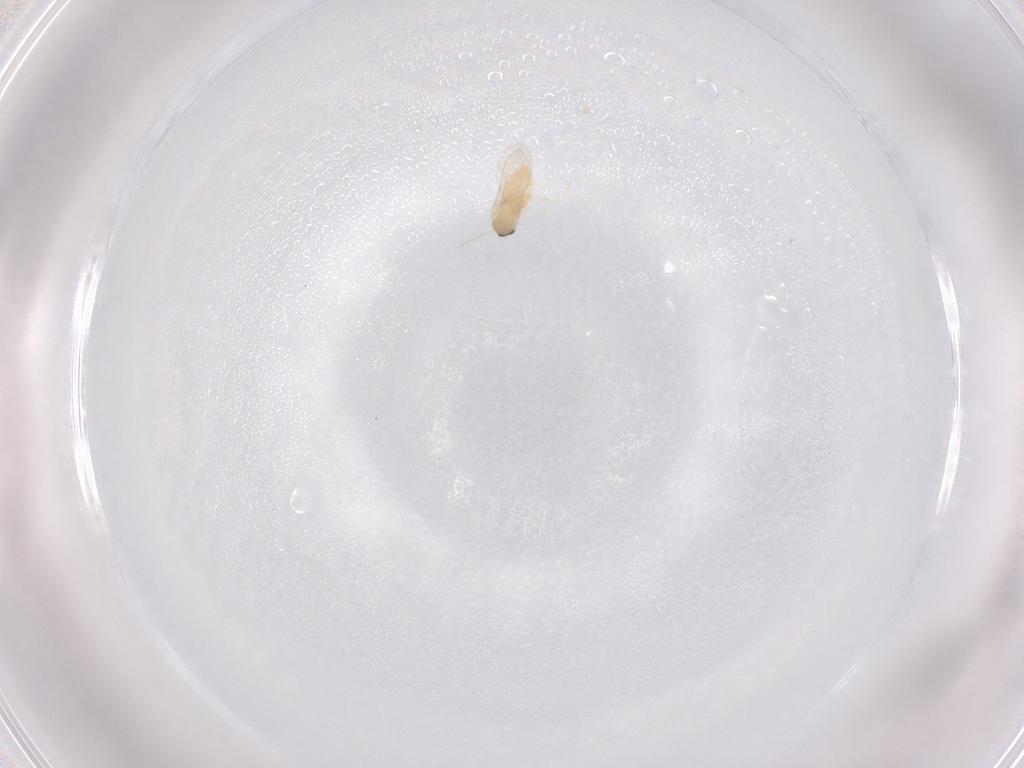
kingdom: Animalia
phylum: Arthropoda
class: Insecta
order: Diptera
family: Cecidomyiidae
